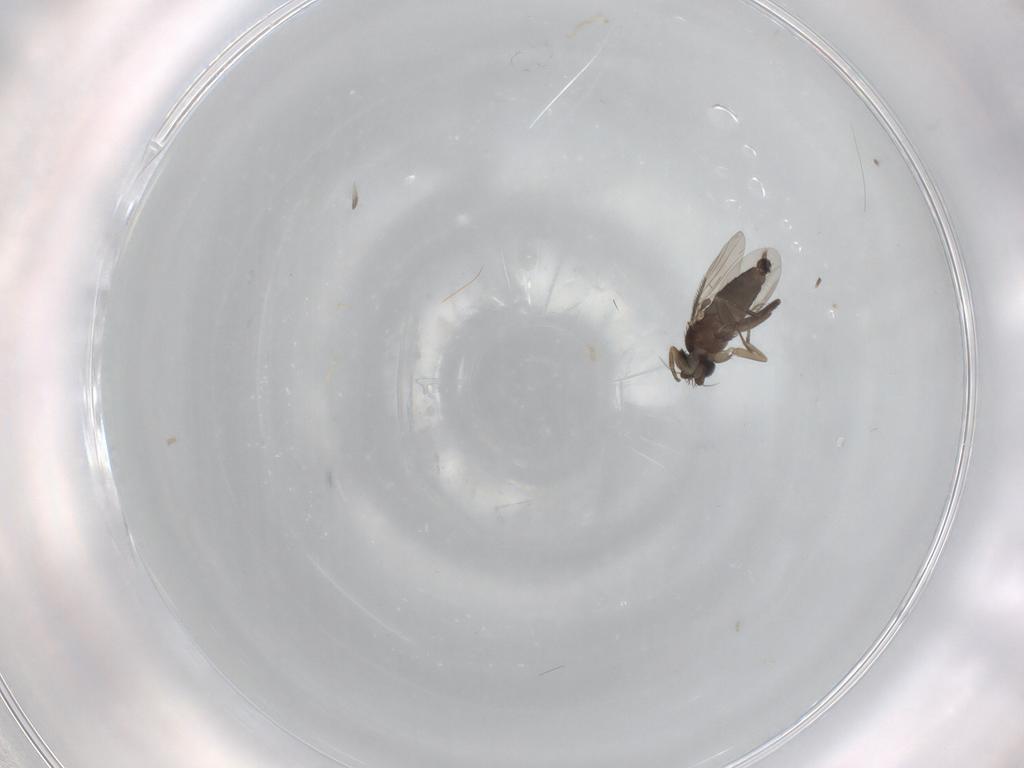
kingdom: Animalia
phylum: Arthropoda
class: Insecta
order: Diptera
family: Phoridae
